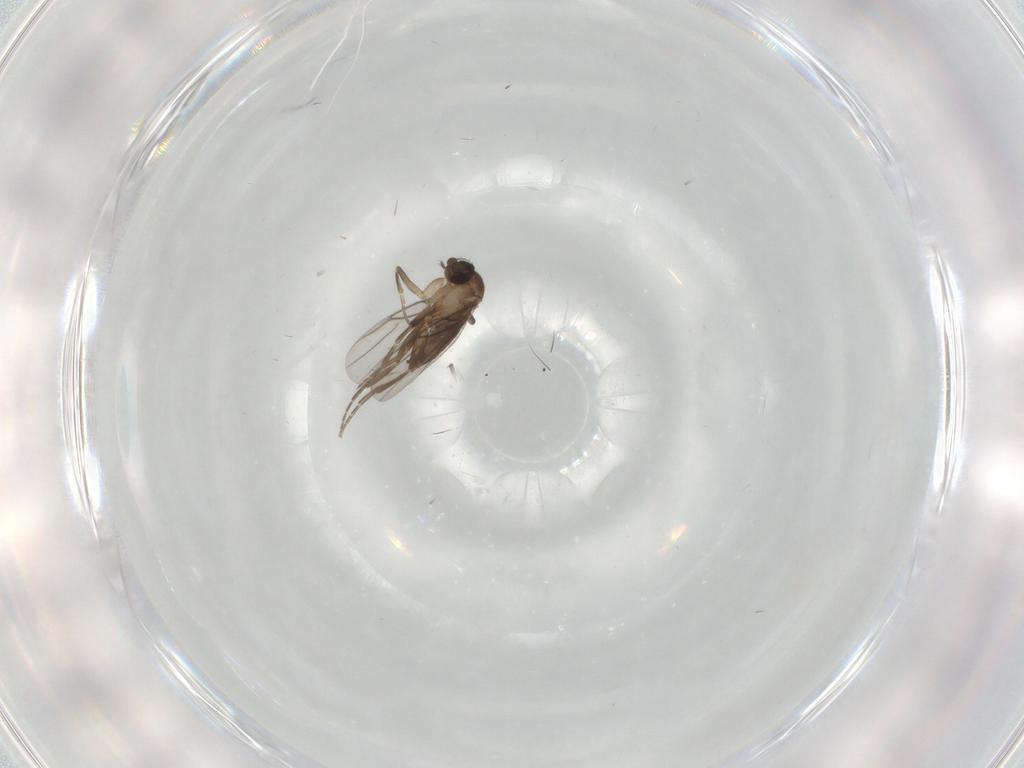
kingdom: Animalia
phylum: Arthropoda
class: Insecta
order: Diptera
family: Phoridae
